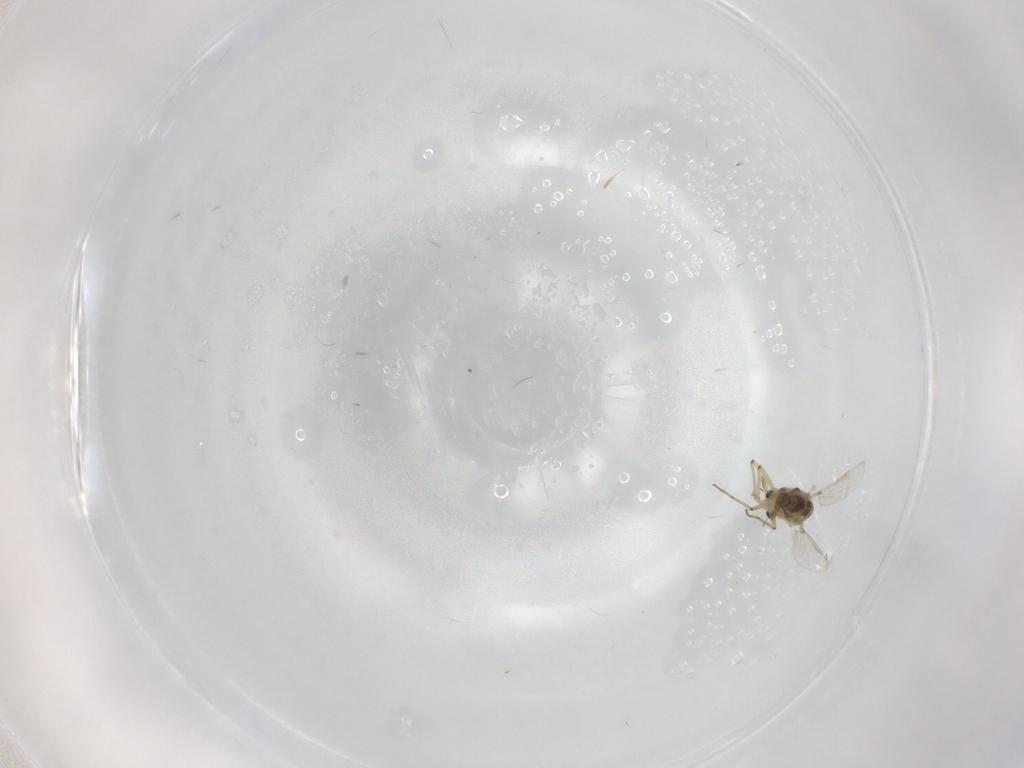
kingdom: Animalia
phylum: Arthropoda
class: Insecta
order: Diptera
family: Chironomidae
